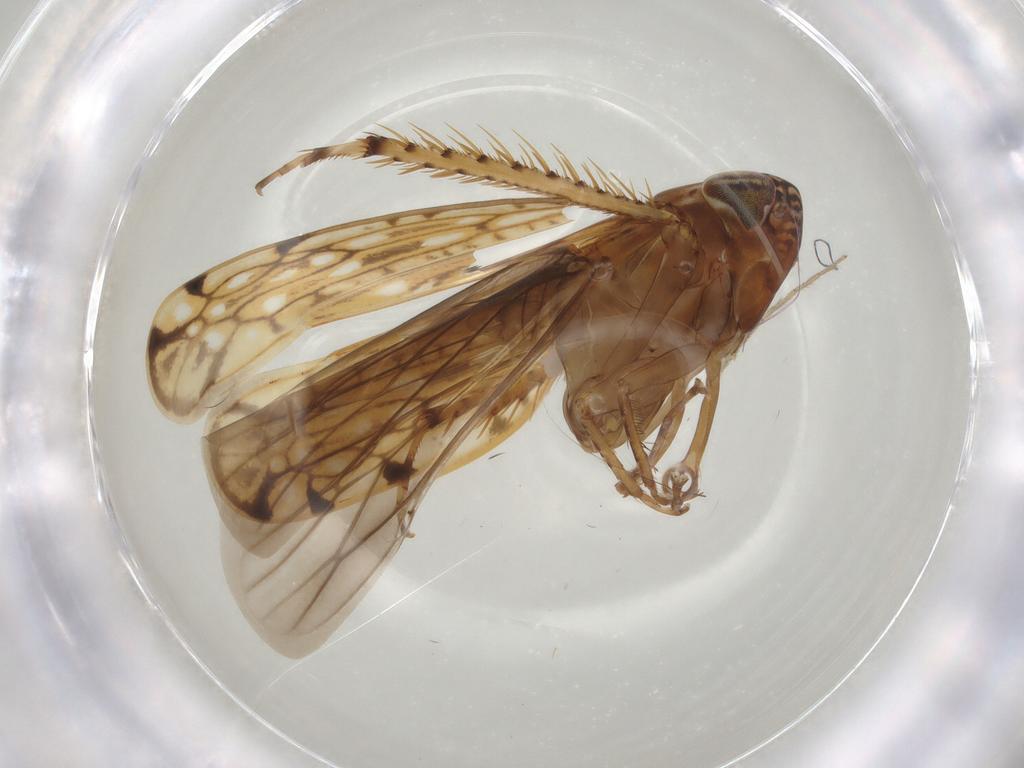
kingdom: Animalia
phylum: Arthropoda
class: Insecta
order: Hemiptera
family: Cicadellidae
